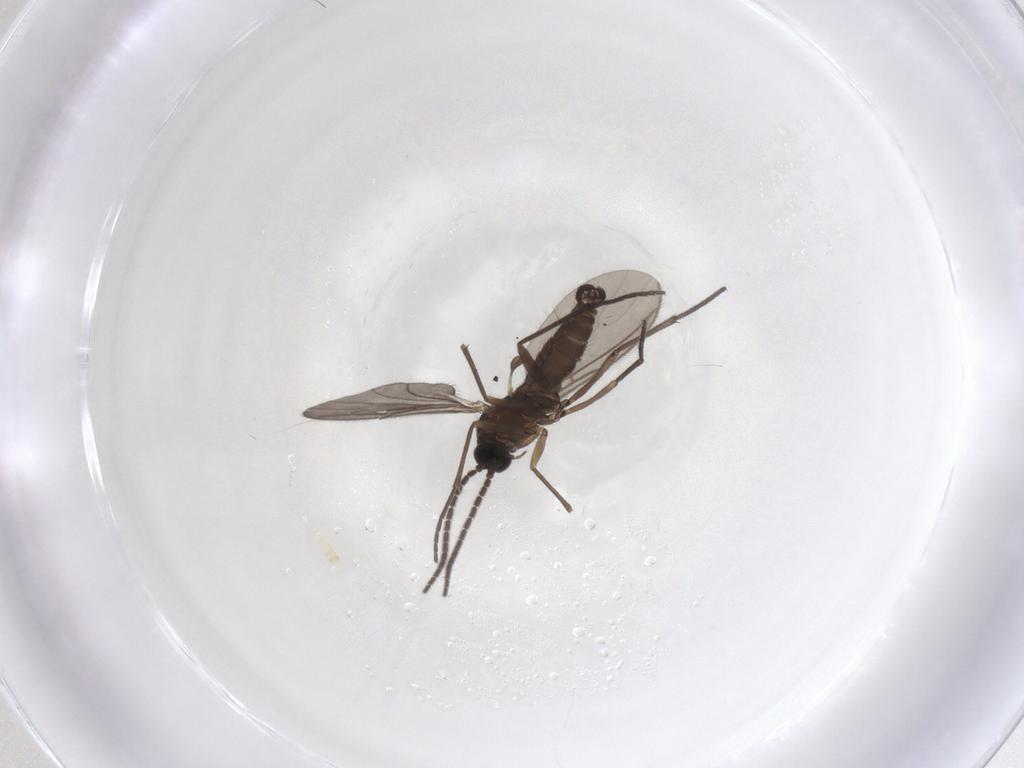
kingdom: Animalia
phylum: Arthropoda
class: Insecta
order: Diptera
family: Sciaridae
